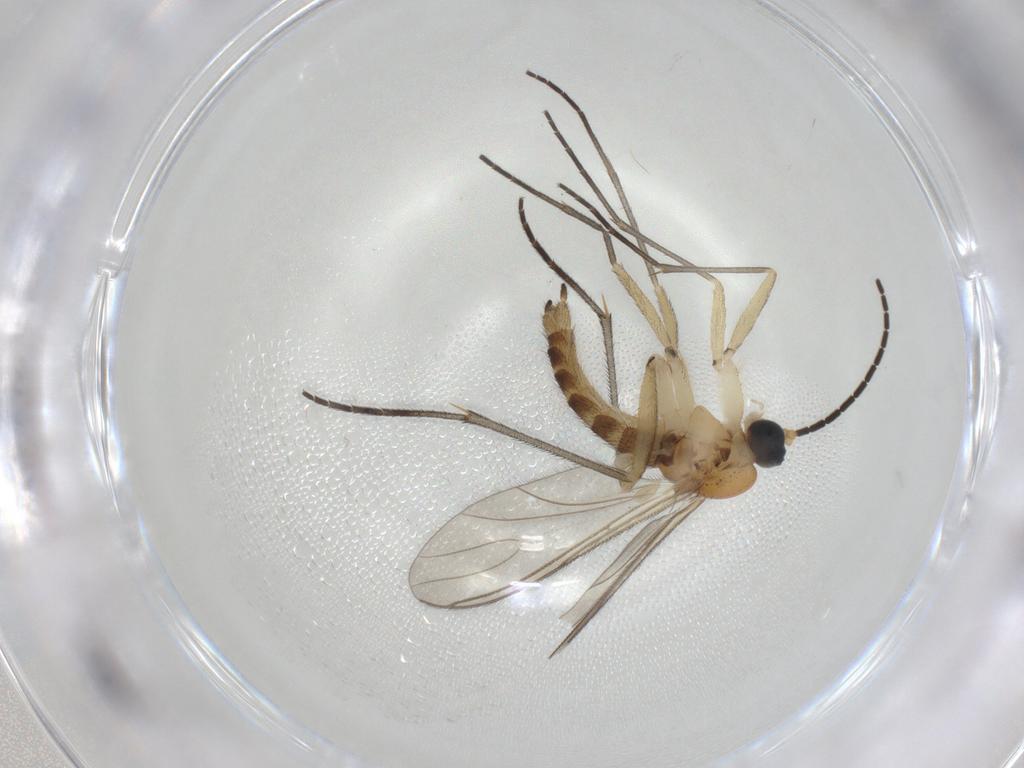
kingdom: Animalia
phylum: Arthropoda
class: Insecta
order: Diptera
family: Sciaridae
